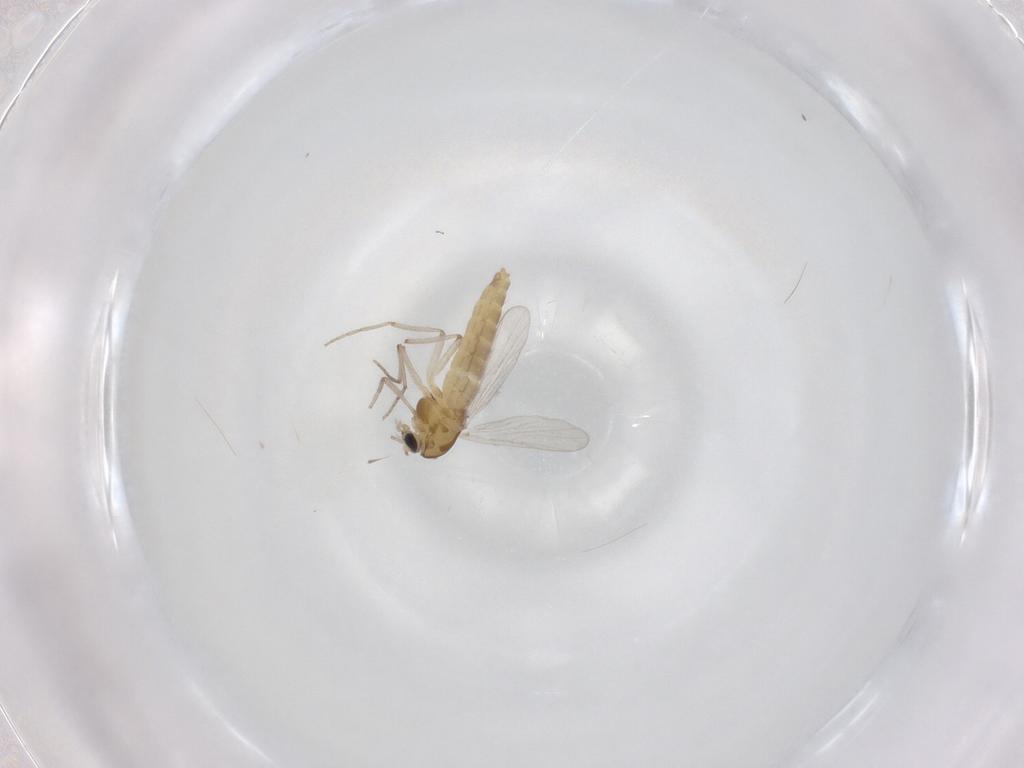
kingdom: Animalia
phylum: Arthropoda
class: Insecta
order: Diptera
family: Chironomidae
